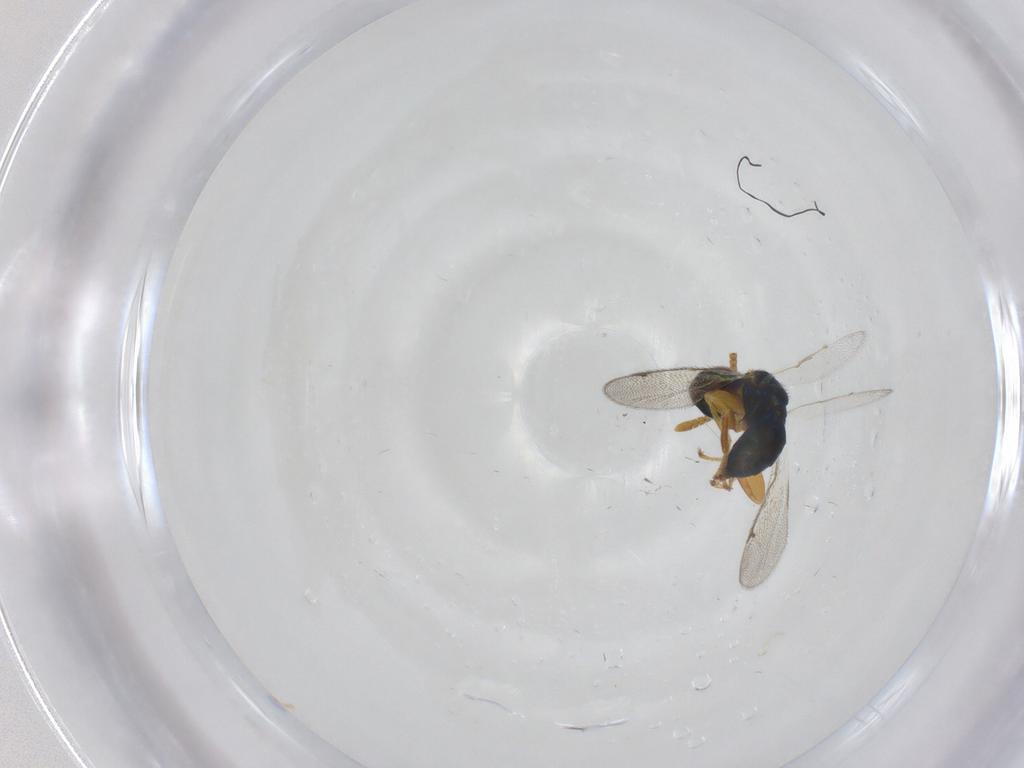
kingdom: Animalia
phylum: Arthropoda
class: Insecta
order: Hymenoptera
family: Torymidae
